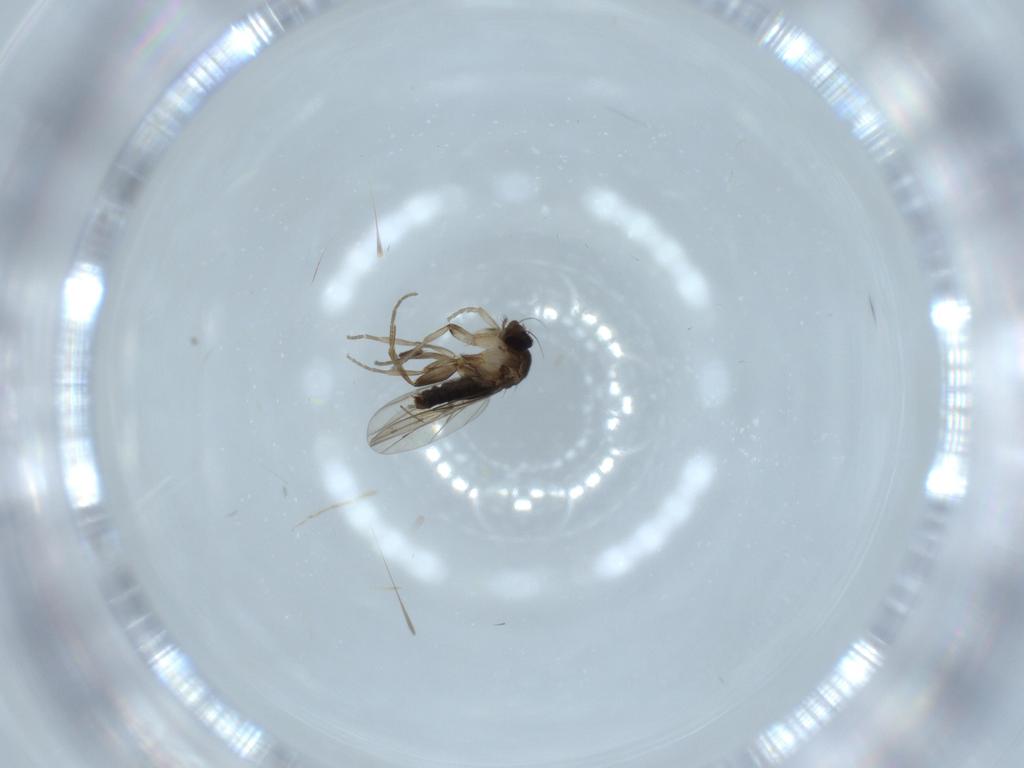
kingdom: Animalia
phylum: Arthropoda
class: Insecta
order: Diptera
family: Phoridae
